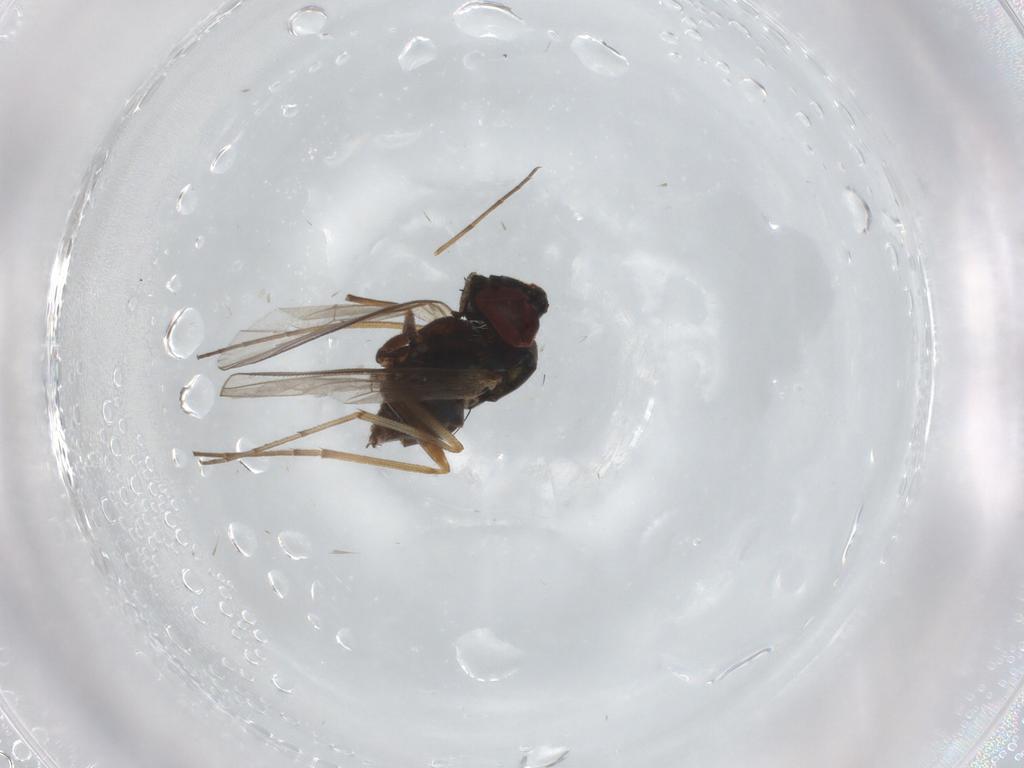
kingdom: Animalia
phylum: Arthropoda
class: Insecta
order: Diptera
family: Dolichopodidae
